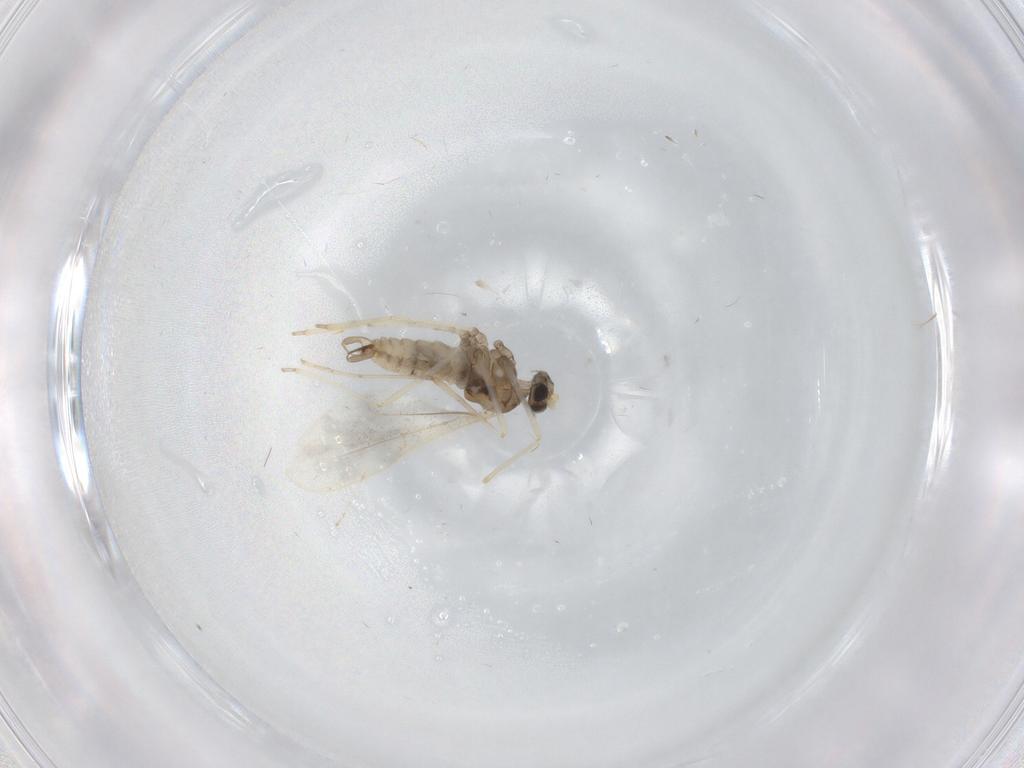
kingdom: Animalia
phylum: Arthropoda
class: Insecta
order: Diptera
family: Cecidomyiidae
